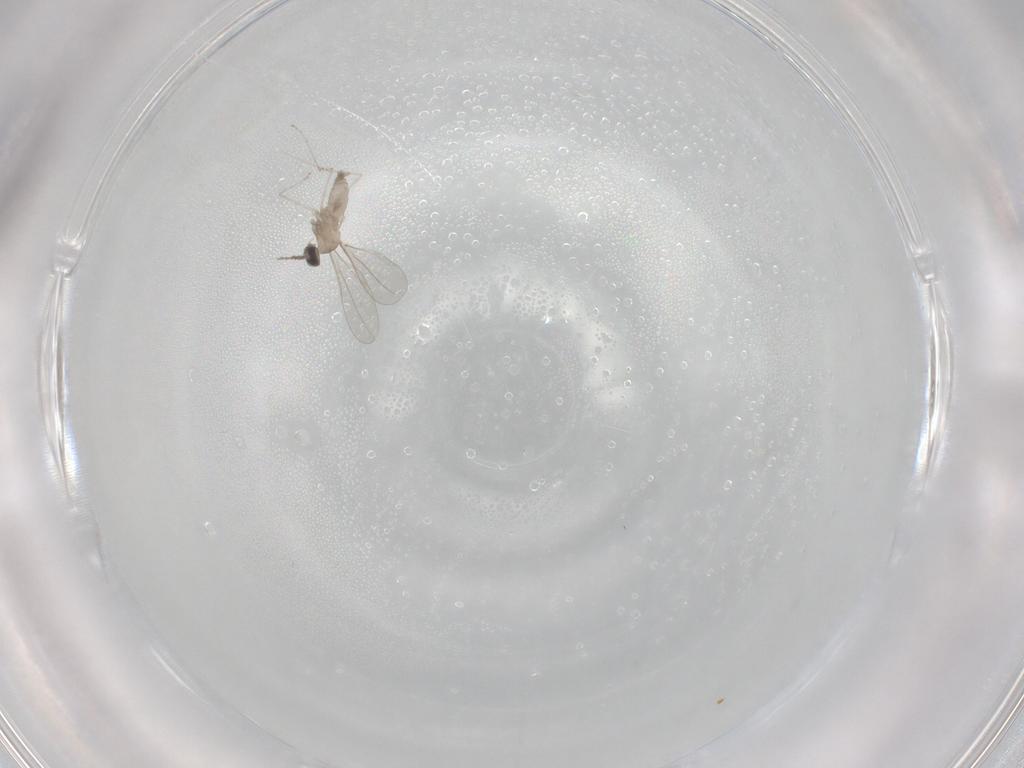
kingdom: Animalia
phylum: Arthropoda
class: Insecta
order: Diptera
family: Cecidomyiidae
